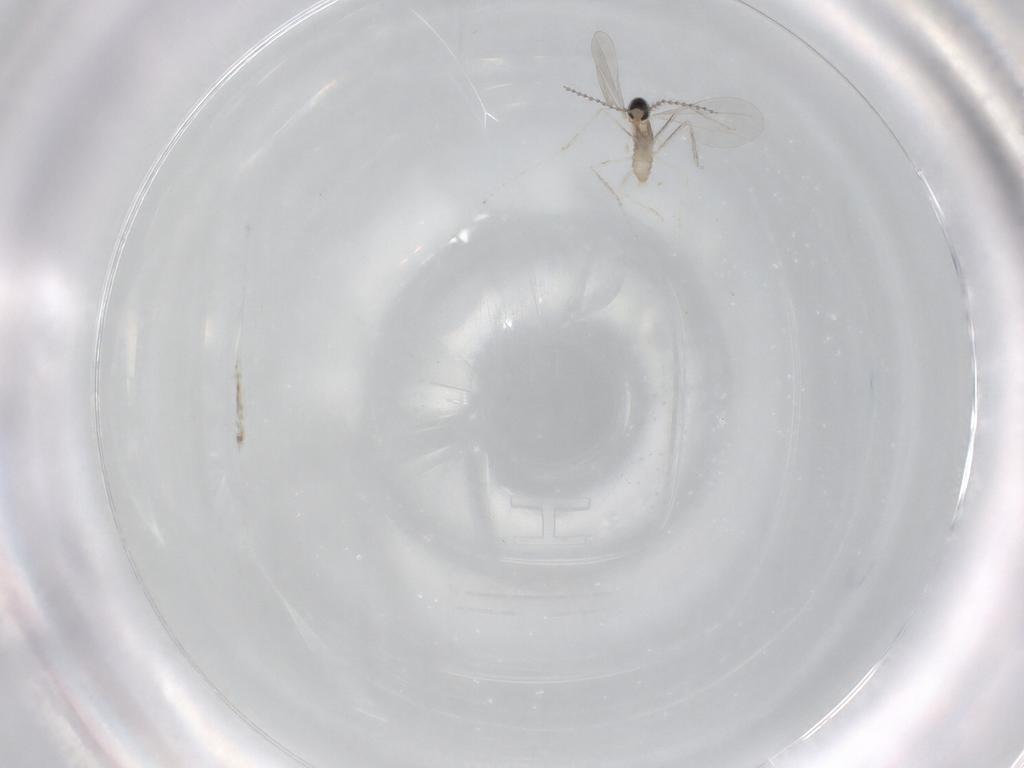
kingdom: Animalia
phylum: Arthropoda
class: Insecta
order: Diptera
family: Cecidomyiidae
